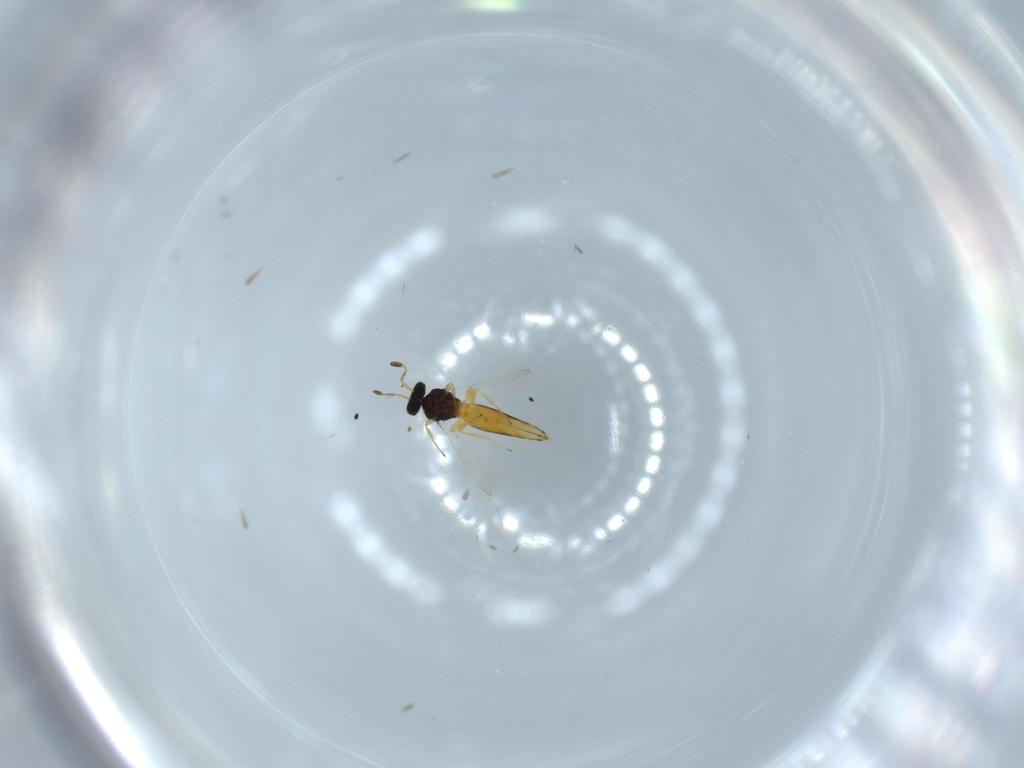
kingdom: Animalia
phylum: Arthropoda
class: Insecta
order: Hymenoptera
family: Scelionidae
